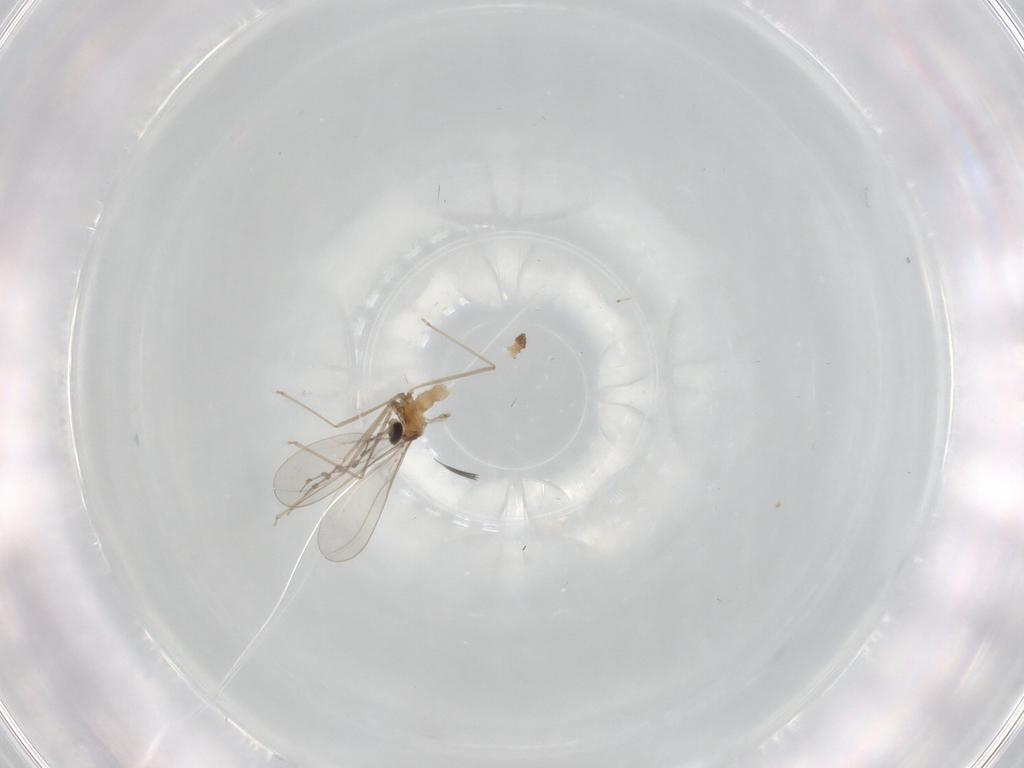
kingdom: Animalia
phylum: Arthropoda
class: Insecta
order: Diptera
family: Cecidomyiidae
